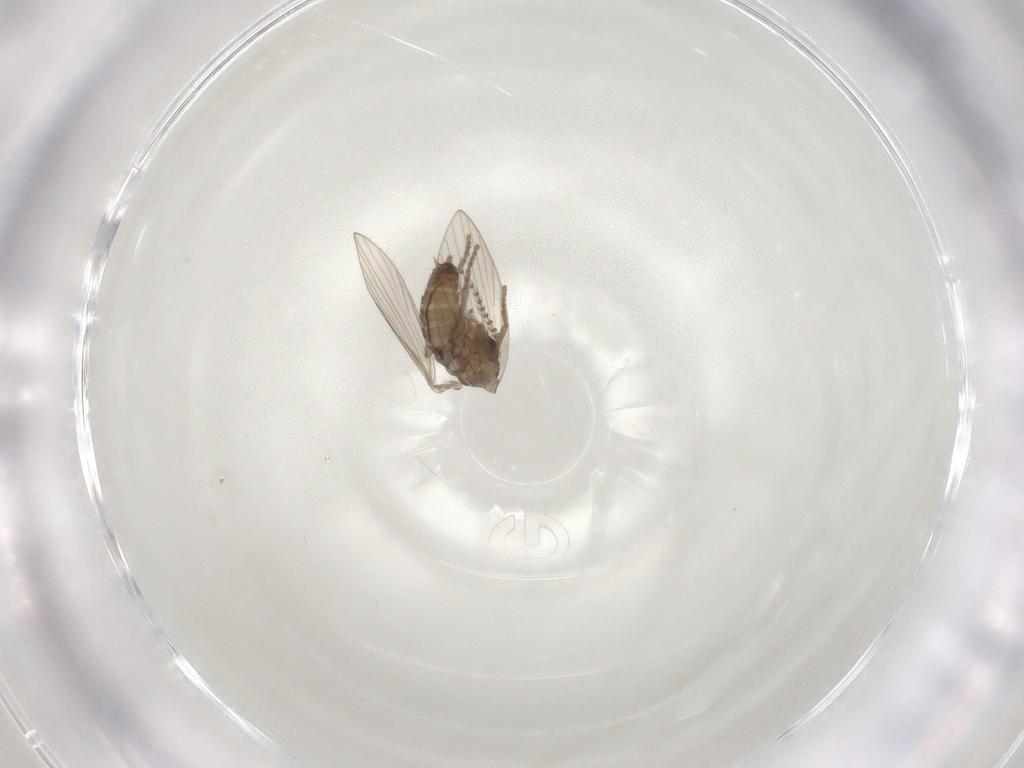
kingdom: Animalia
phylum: Arthropoda
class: Insecta
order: Diptera
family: Psychodidae
